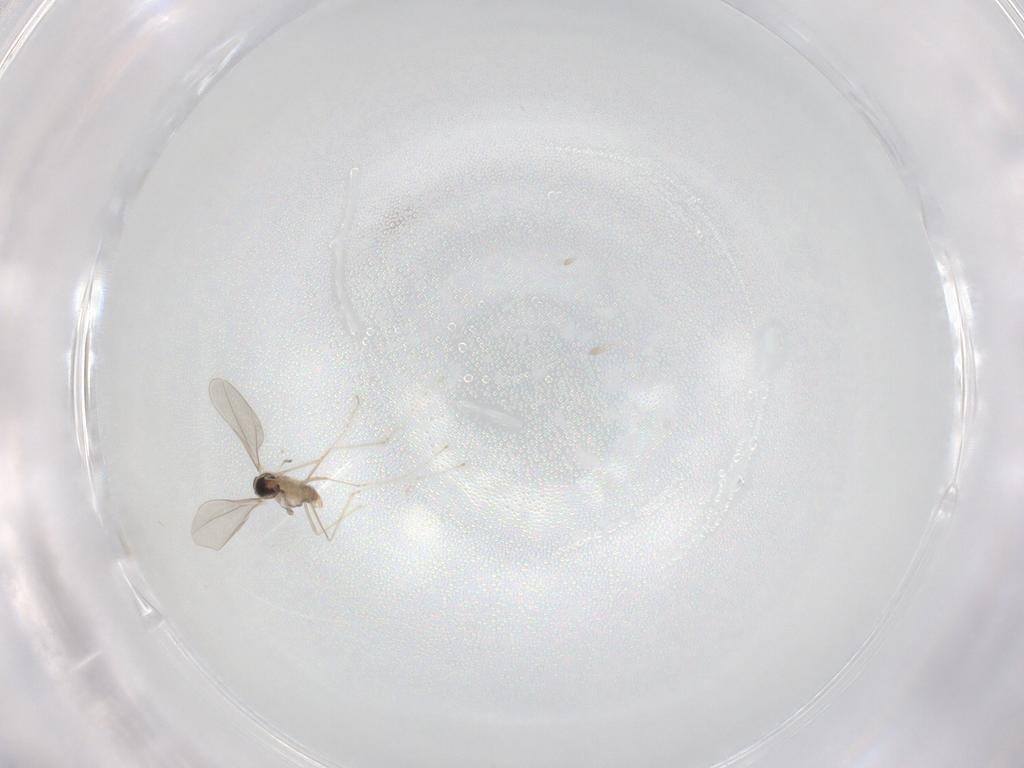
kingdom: Animalia
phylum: Arthropoda
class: Insecta
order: Diptera
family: Cecidomyiidae
